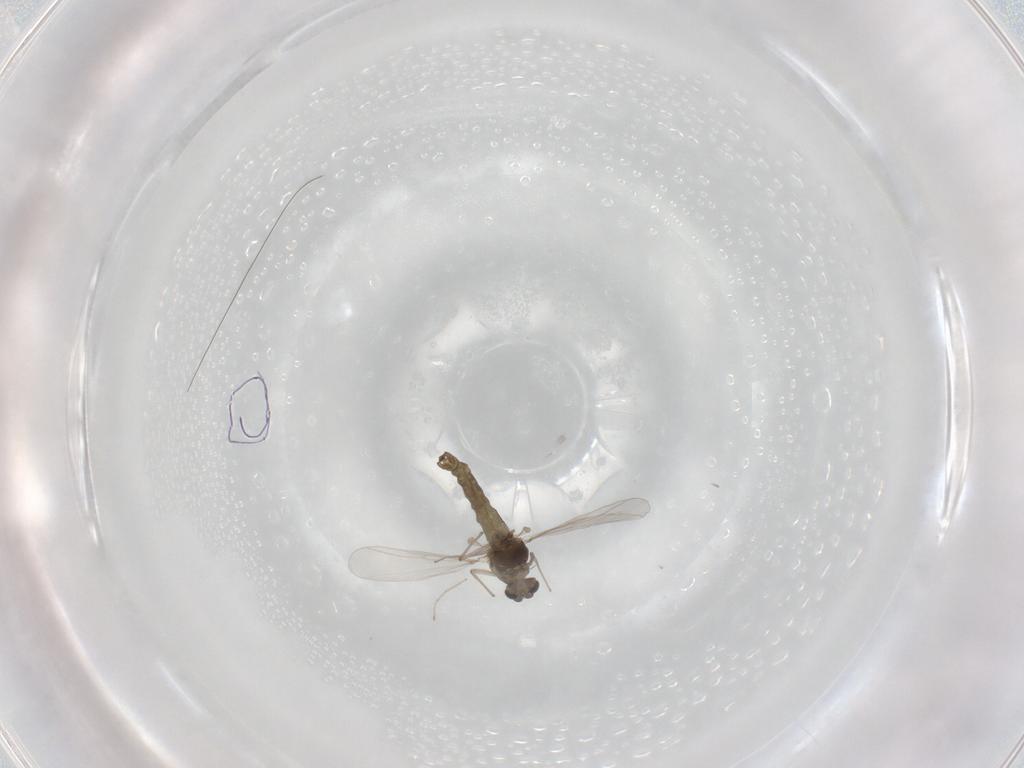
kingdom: Animalia
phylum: Arthropoda
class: Insecta
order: Diptera
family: Chironomidae
